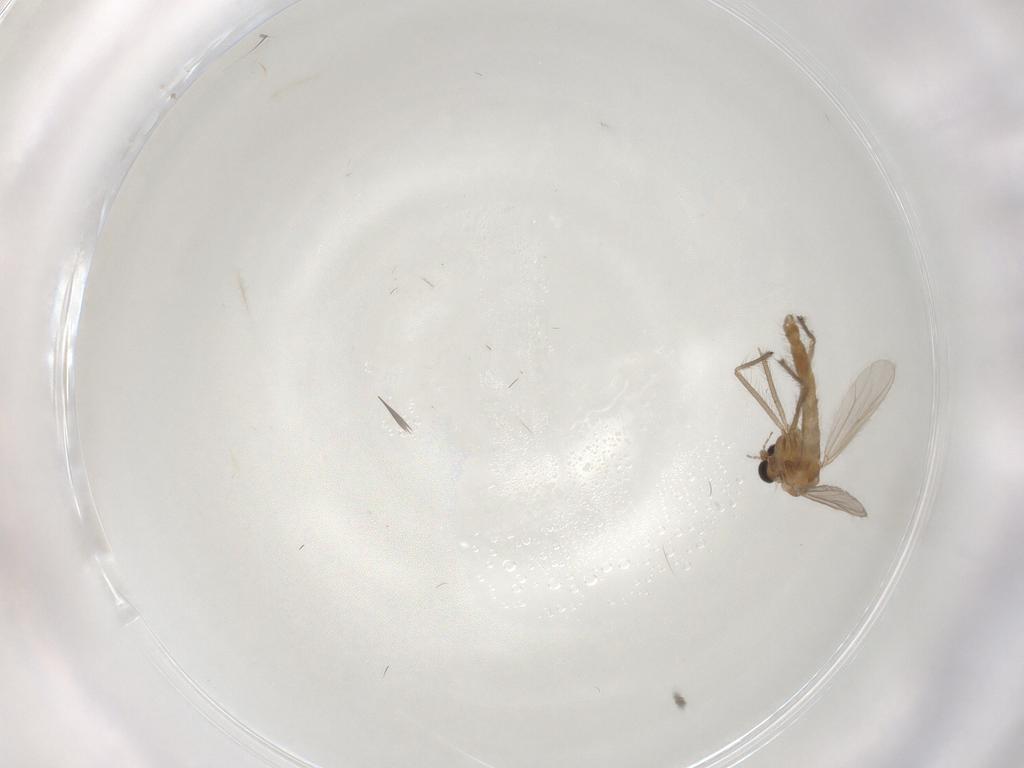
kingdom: Animalia
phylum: Arthropoda
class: Insecta
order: Diptera
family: Chironomidae
